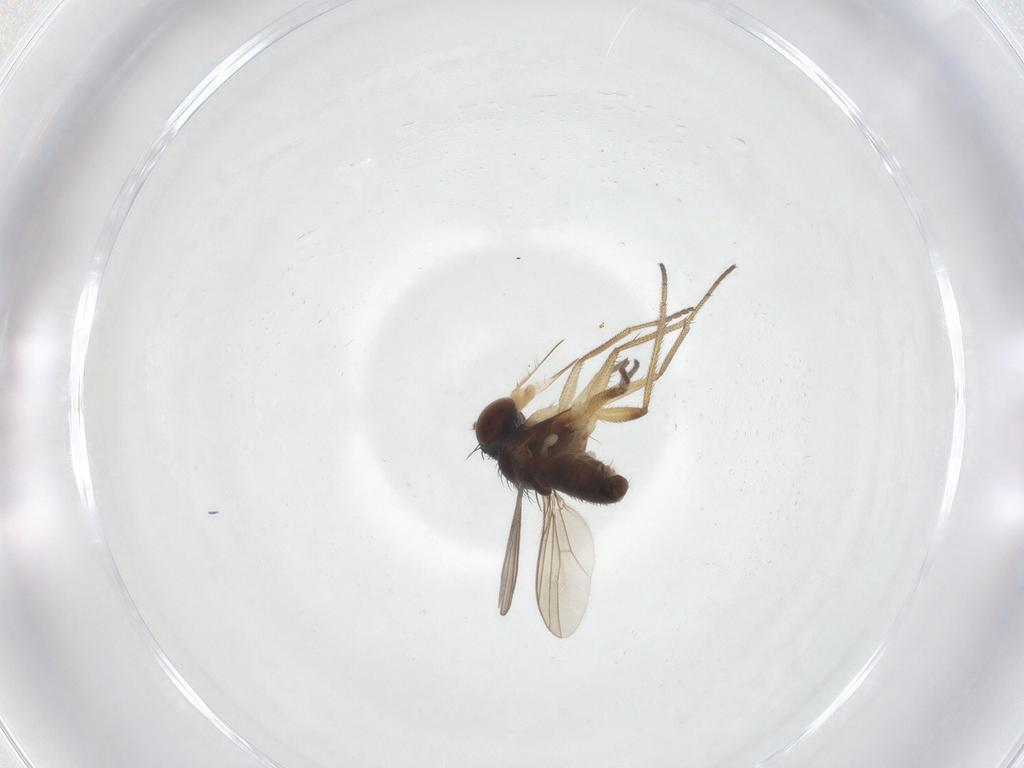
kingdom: Animalia
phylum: Arthropoda
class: Insecta
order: Diptera
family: Dolichopodidae
